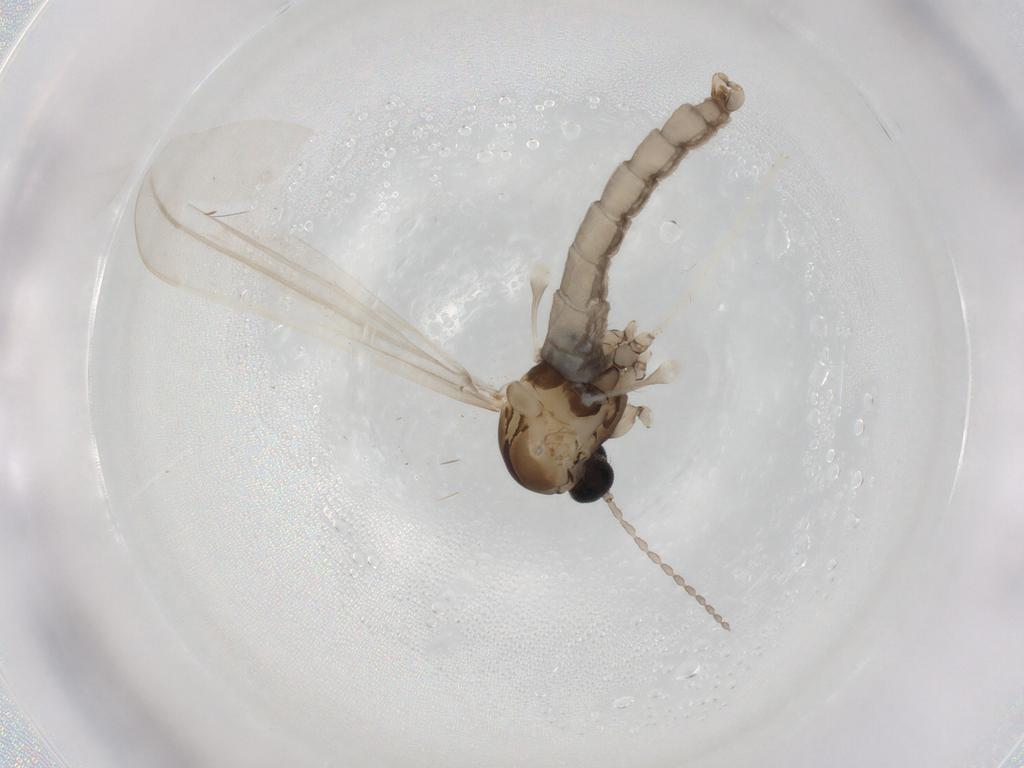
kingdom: Animalia
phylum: Arthropoda
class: Insecta
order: Diptera
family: Cecidomyiidae
